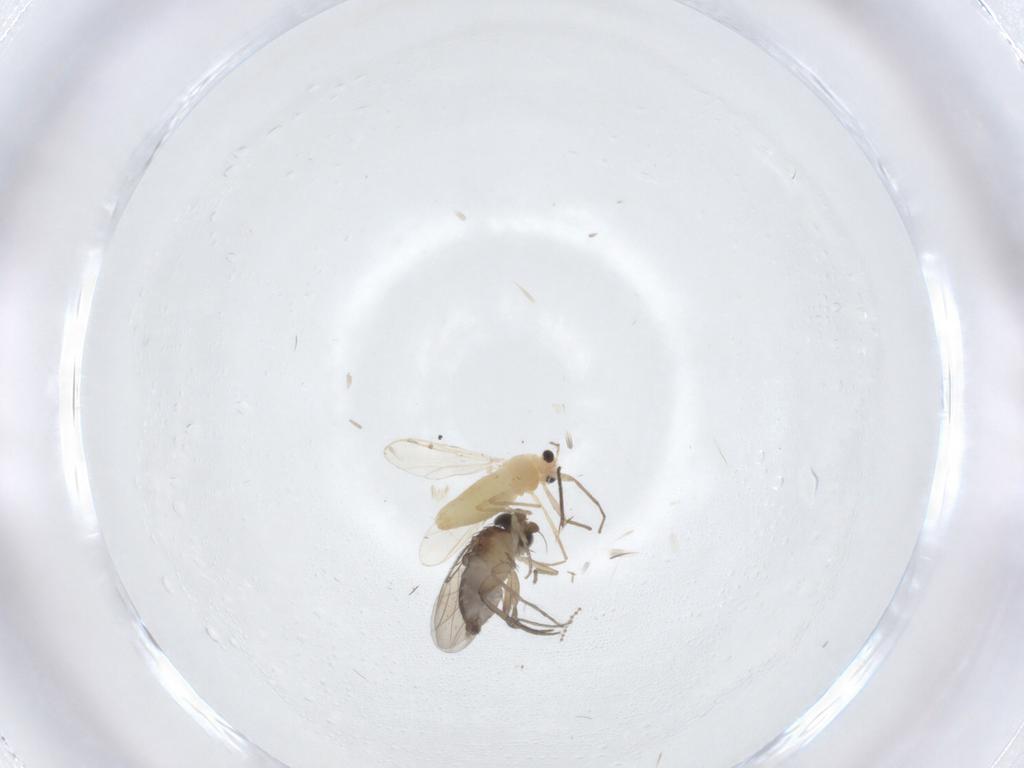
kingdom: Animalia
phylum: Arthropoda
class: Insecta
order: Diptera
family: Chironomidae
